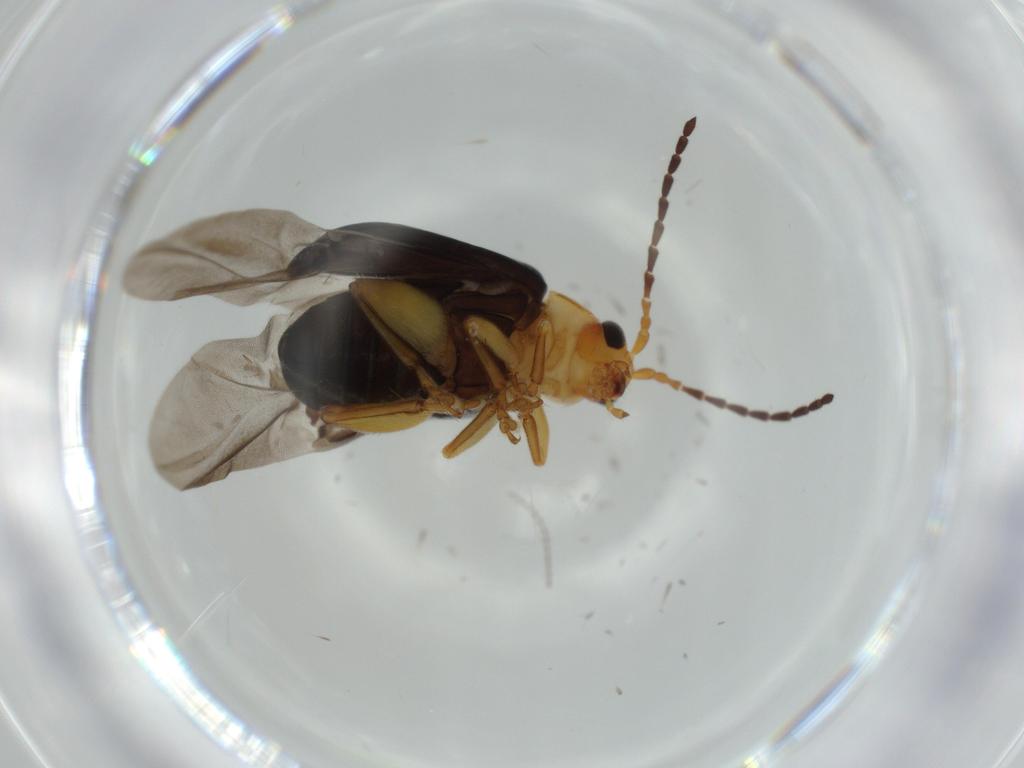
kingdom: Animalia
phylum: Arthropoda
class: Insecta
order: Coleoptera
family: Chrysomelidae
